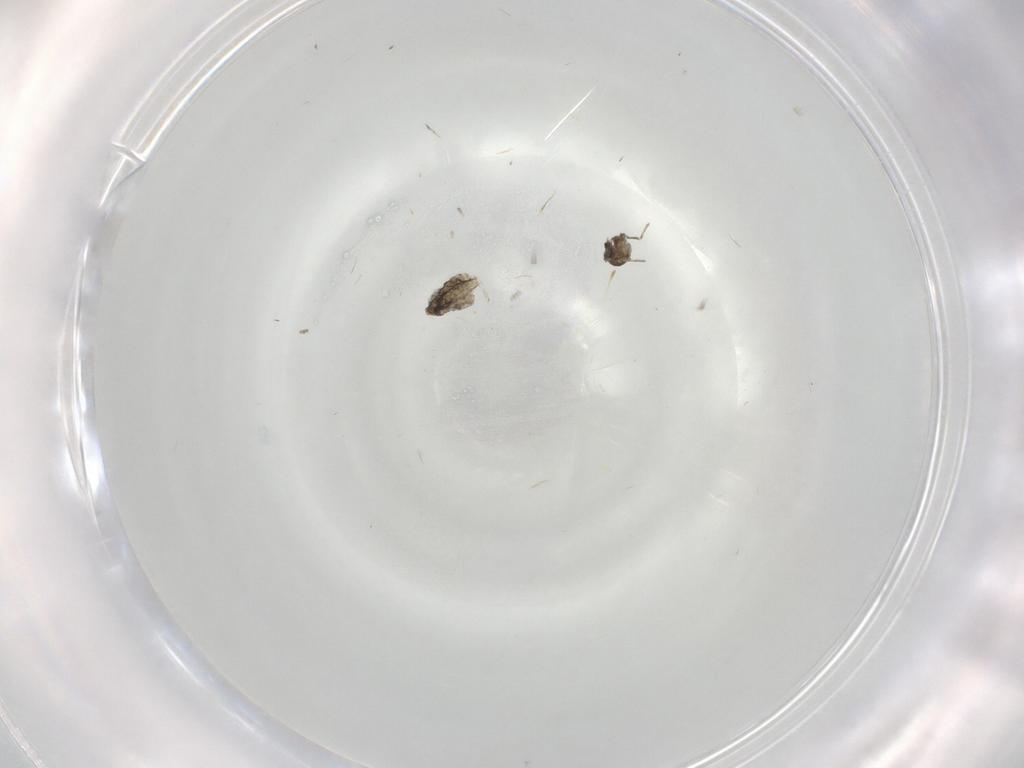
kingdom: Animalia
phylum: Arthropoda
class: Insecta
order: Diptera
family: Cecidomyiidae
